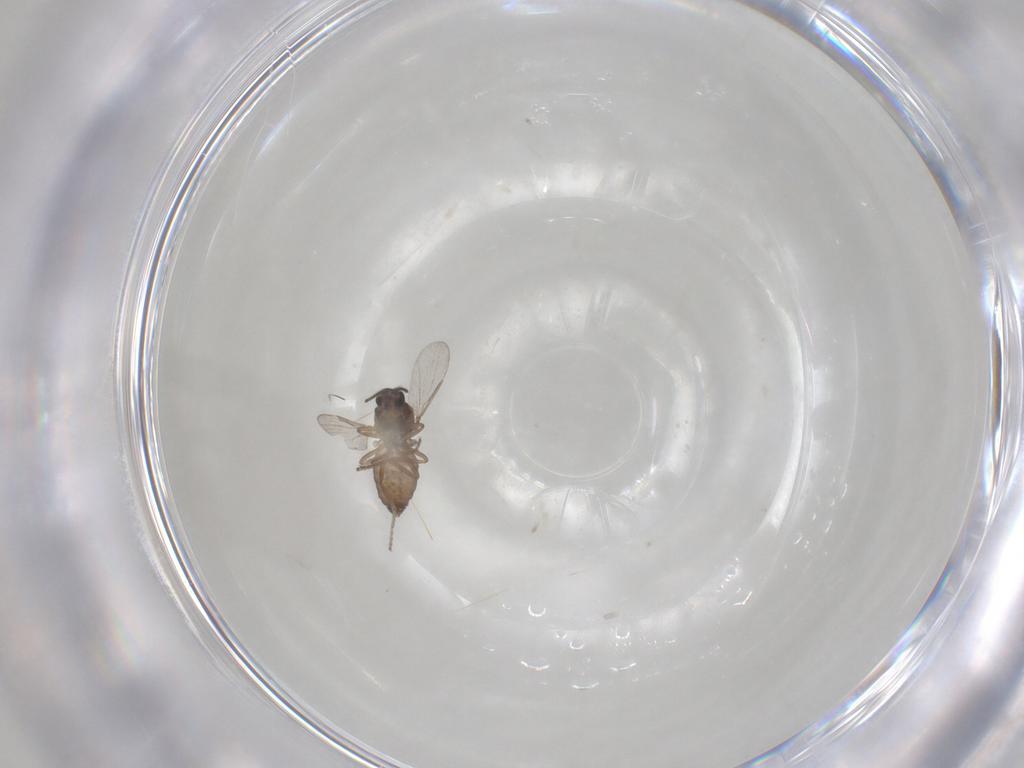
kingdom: Animalia
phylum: Arthropoda
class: Insecta
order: Diptera
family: Ceratopogonidae
